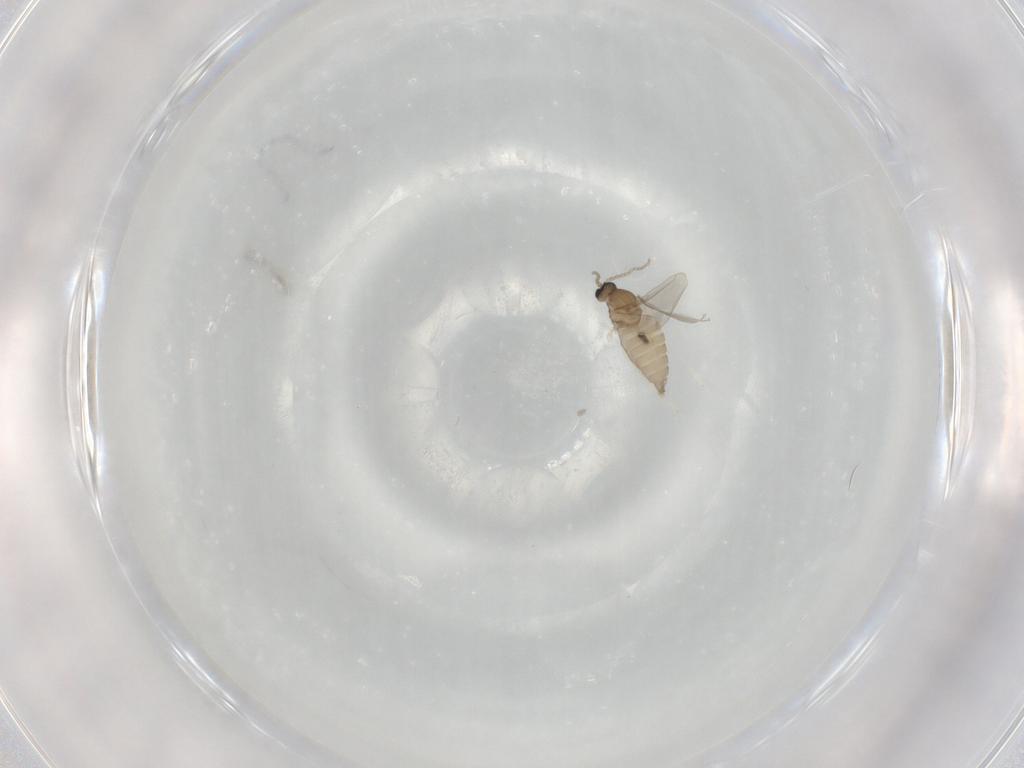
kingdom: Animalia
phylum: Arthropoda
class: Insecta
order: Diptera
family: Cecidomyiidae
